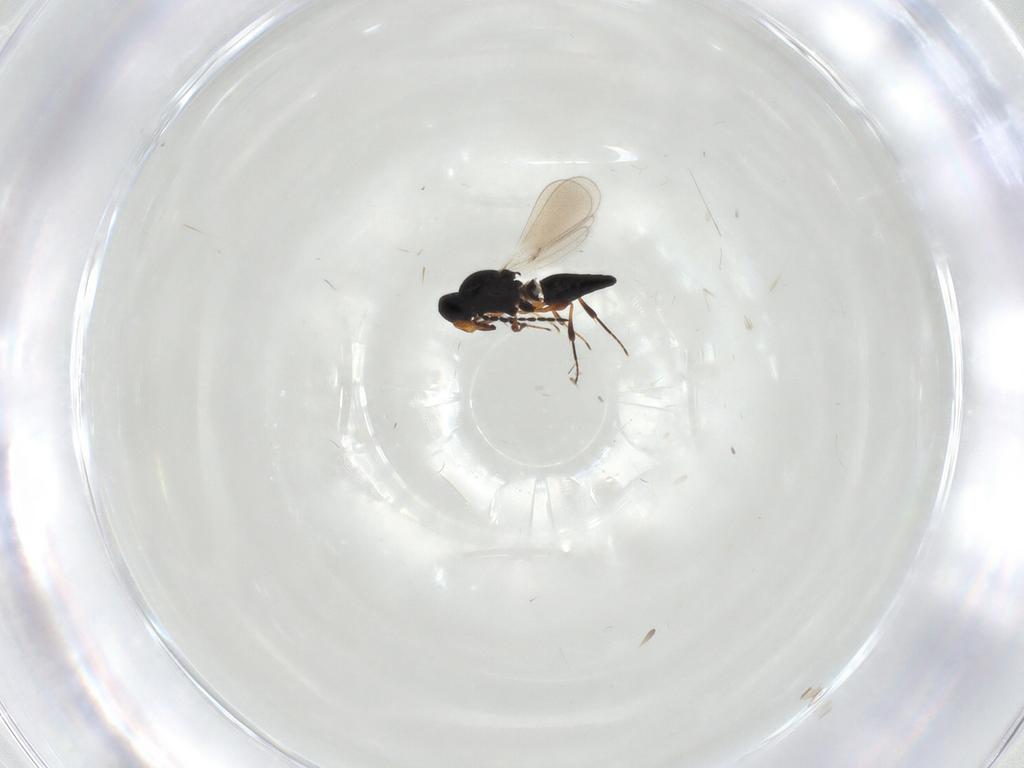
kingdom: Animalia
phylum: Arthropoda
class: Insecta
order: Hymenoptera
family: Platygastridae
